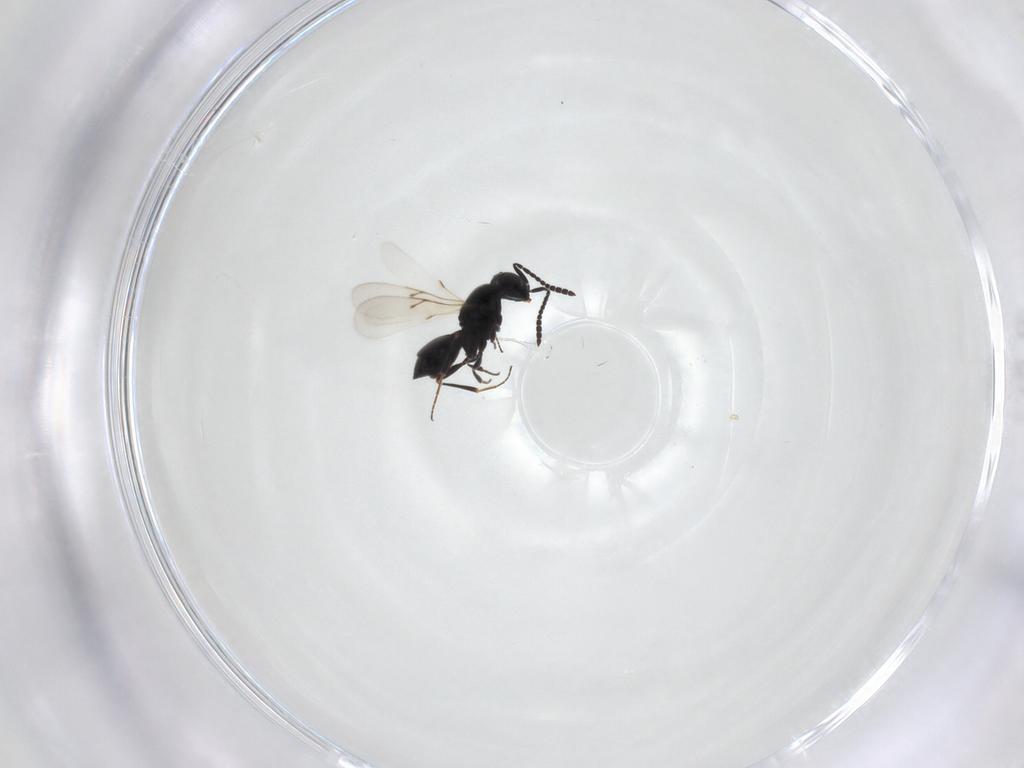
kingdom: Animalia
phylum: Arthropoda
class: Insecta
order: Hymenoptera
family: Scelionidae
